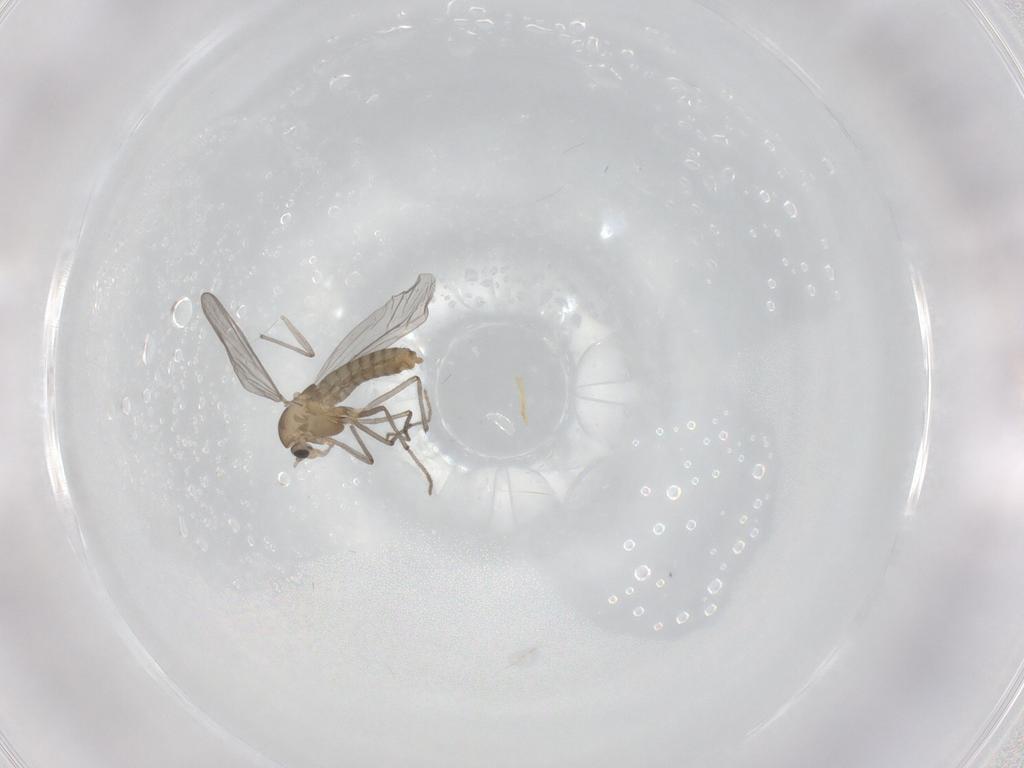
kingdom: Animalia
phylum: Arthropoda
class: Insecta
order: Diptera
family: Chironomidae
